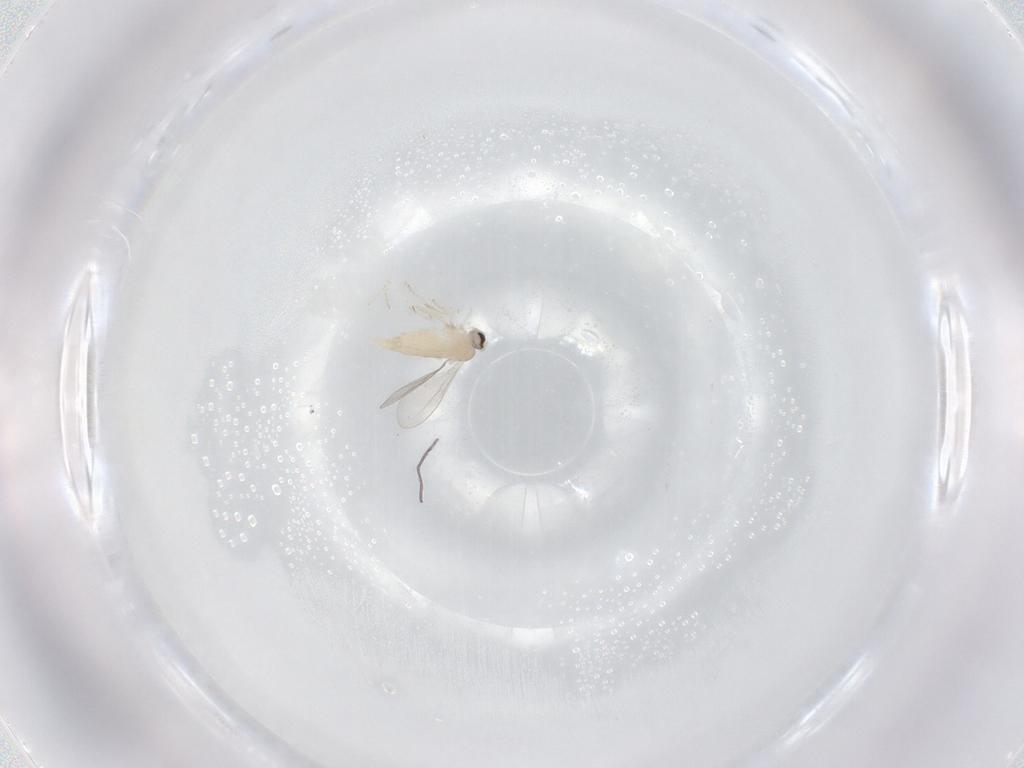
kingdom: Animalia
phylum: Arthropoda
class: Insecta
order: Diptera
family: Cecidomyiidae
